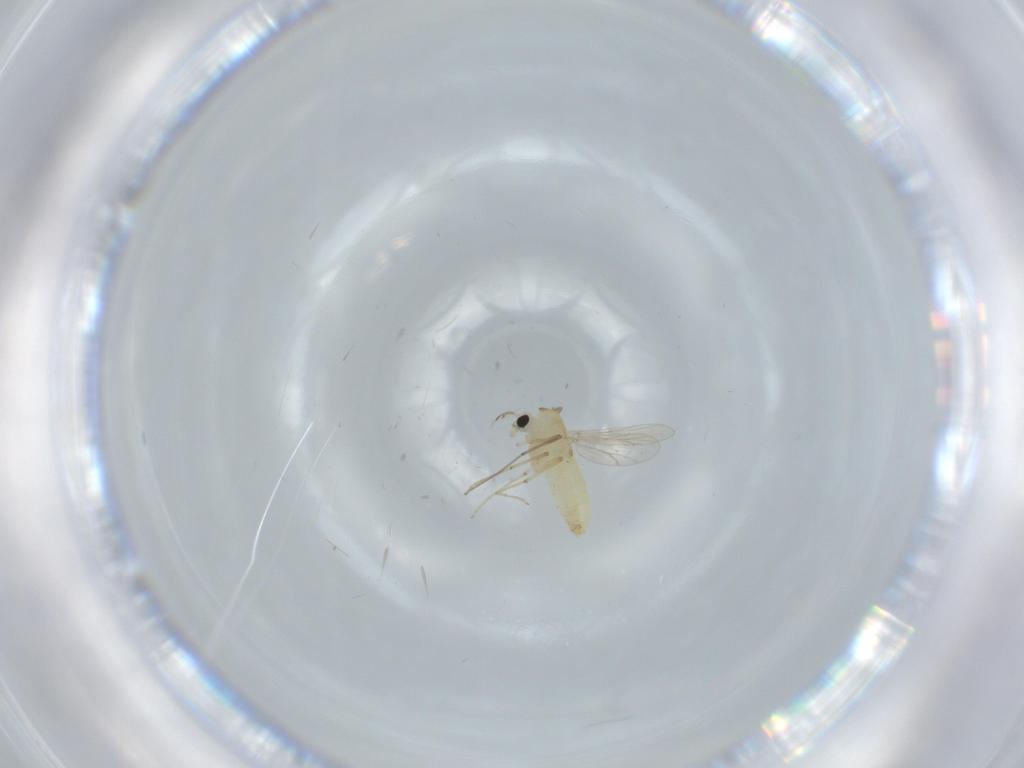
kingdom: Animalia
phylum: Arthropoda
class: Insecta
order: Diptera
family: Chironomidae
